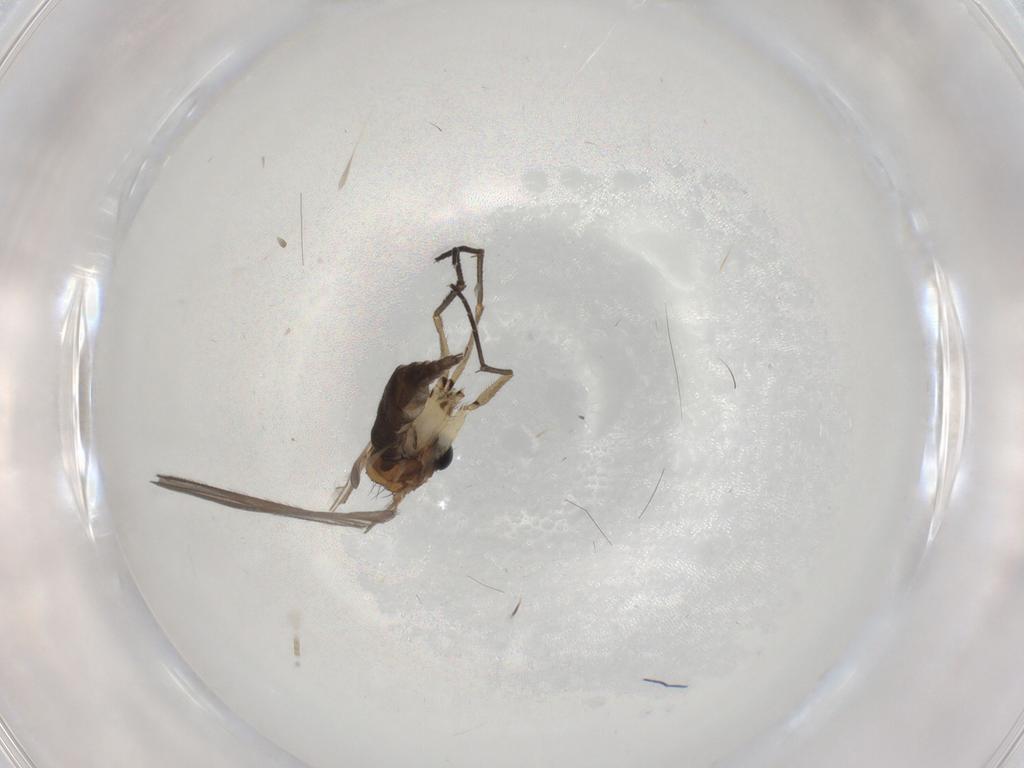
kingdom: Animalia
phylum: Arthropoda
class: Insecta
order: Diptera
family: Sciaridae
